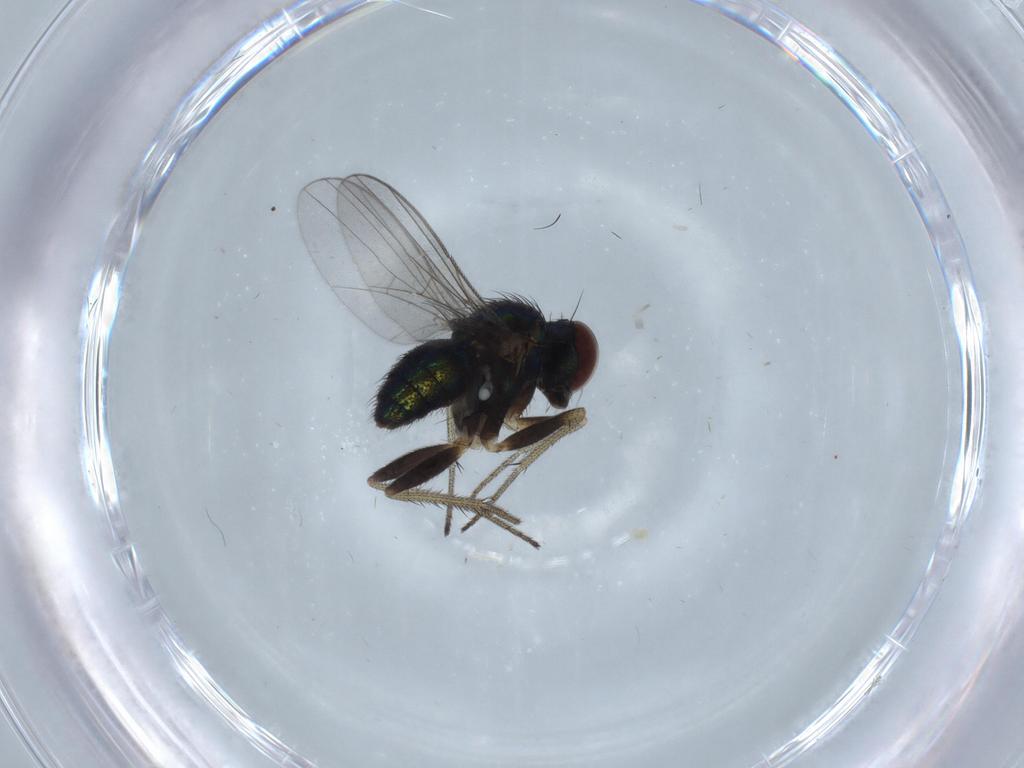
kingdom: Animalia
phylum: Arthropoda
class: Insecta
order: Diptera
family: Dolichopodidae
